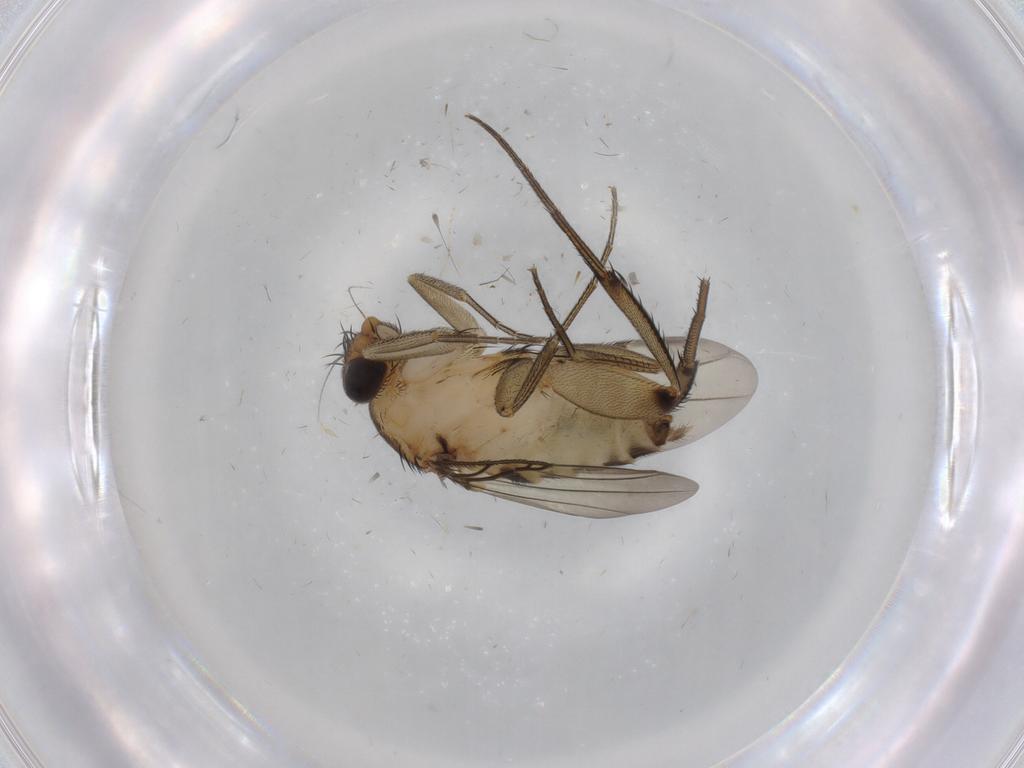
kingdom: Animalia
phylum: Arthropoda
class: Insecta
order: Diptera
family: Phoridae
